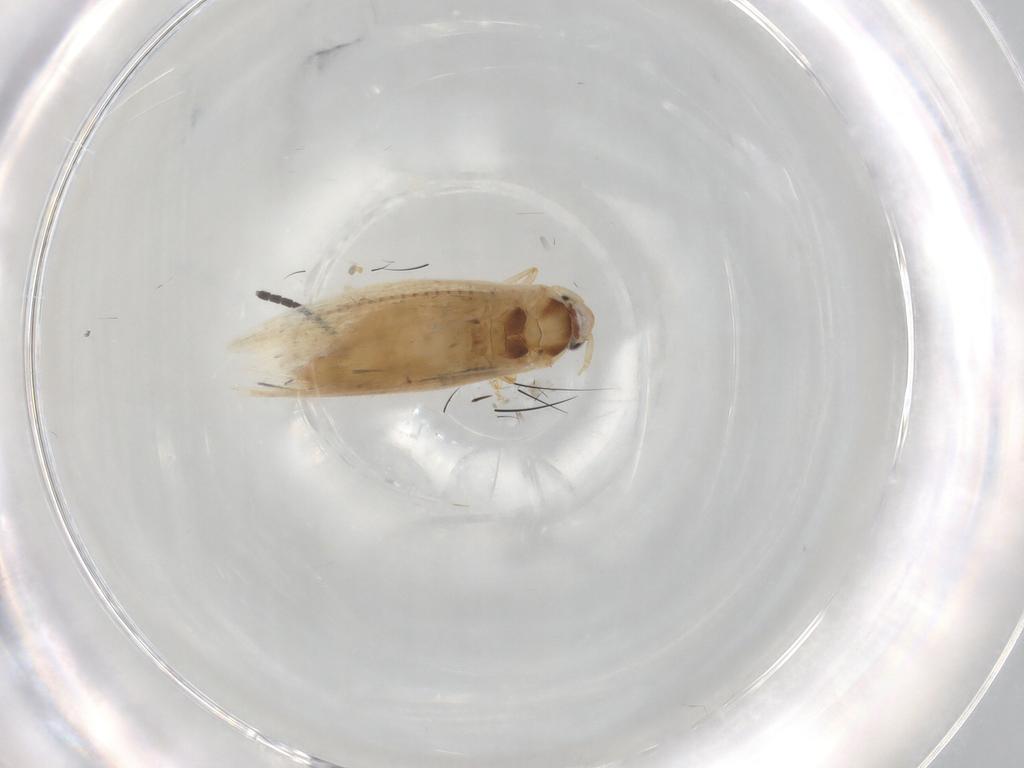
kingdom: Animalia
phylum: Arthropoda
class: Insecta
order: Lepidoptera
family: Bucculatricidae
